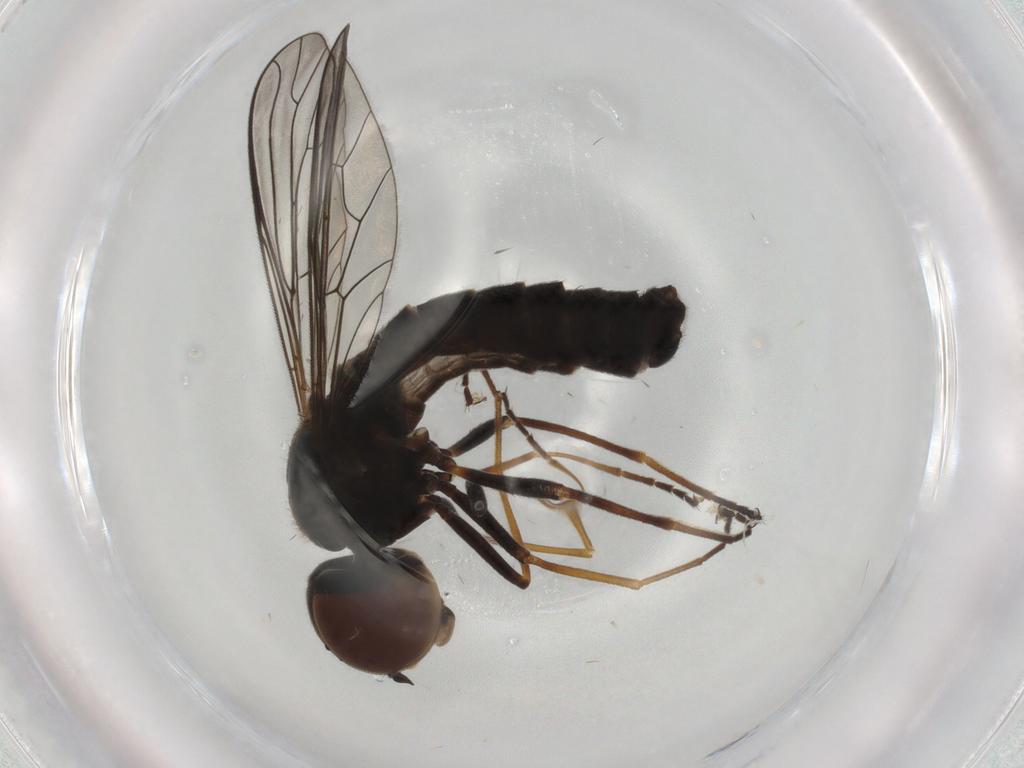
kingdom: Animalia
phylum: Arthropoda
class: Insecta
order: Diptera
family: Bombyliidae
